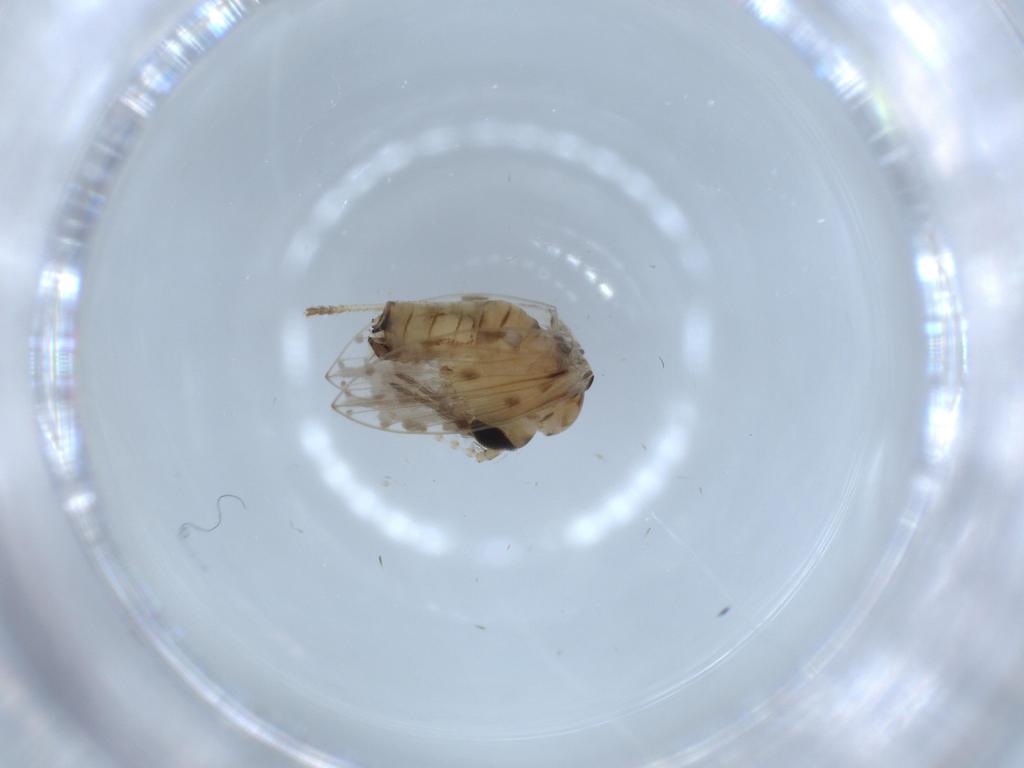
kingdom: Animalia
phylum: Arthropoda
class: Insecta
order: Diptera
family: Psychodidae
